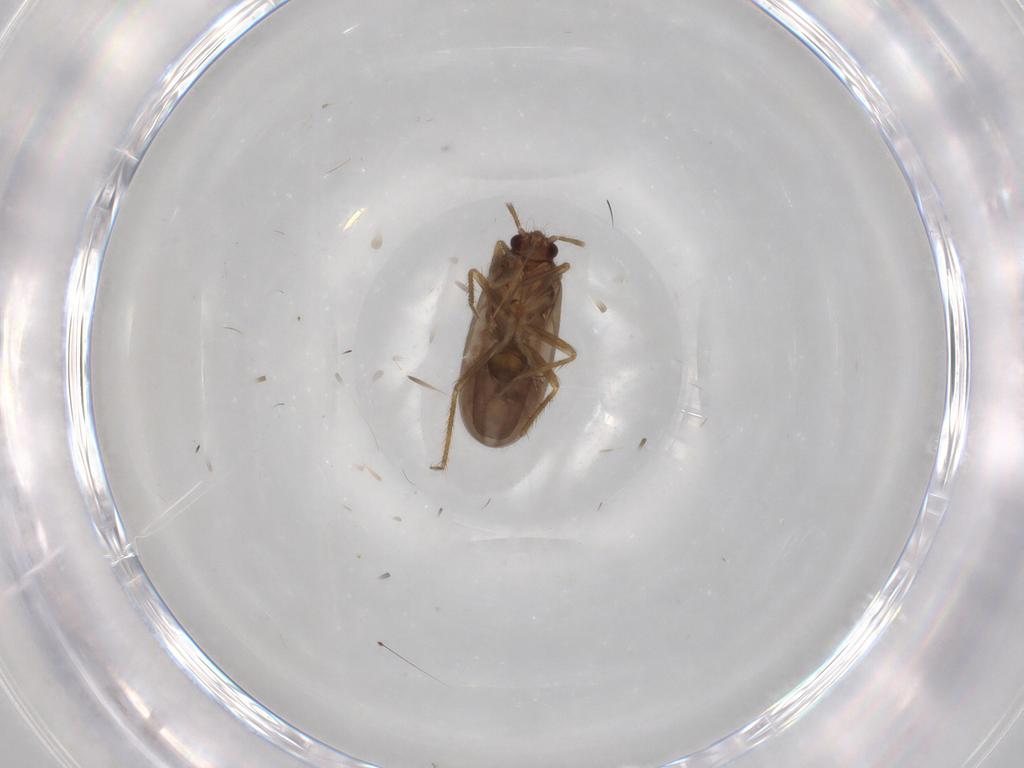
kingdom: Animalia
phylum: Arthropoda
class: Insecta
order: Hemiptera
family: Ceratocombidae
